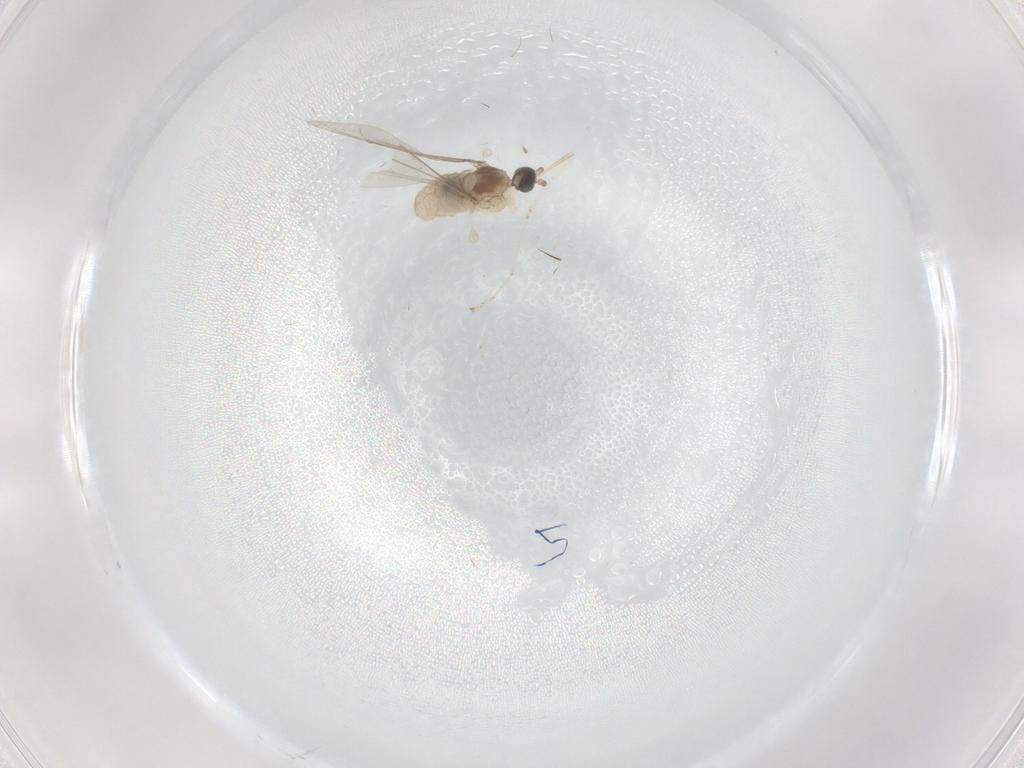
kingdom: Animalia
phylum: Arthropoda
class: Insecta
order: Diptera
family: Cecidomyiidae
